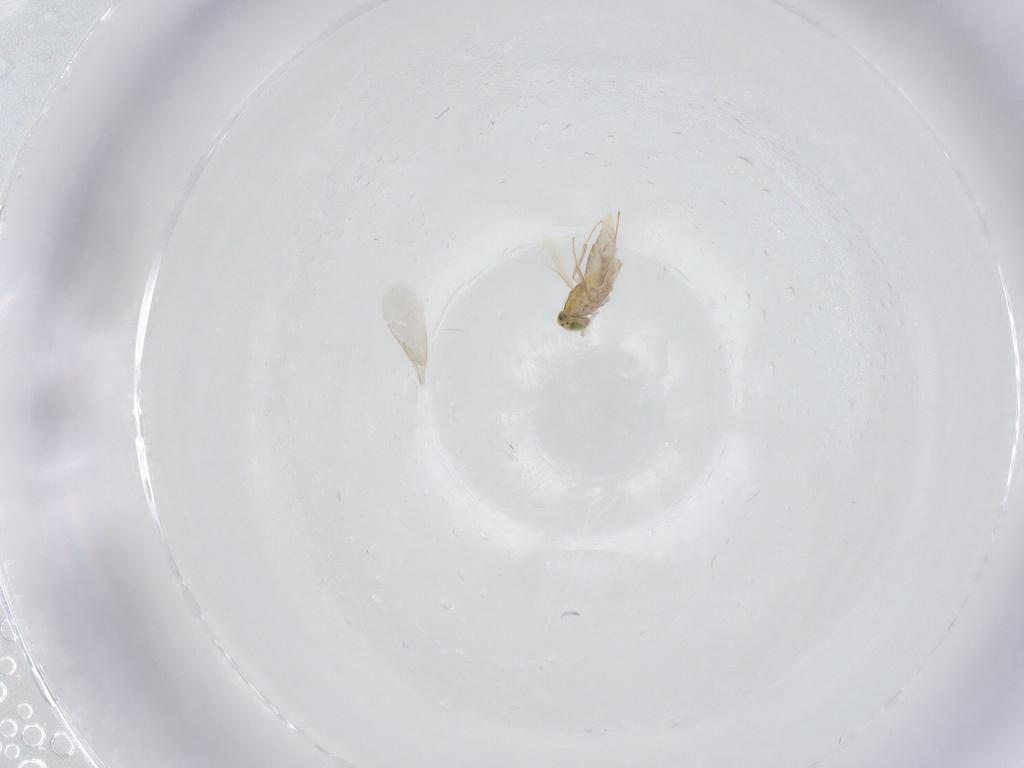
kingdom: Animalia
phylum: Arthropoda
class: Insecta
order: Hymenoptera
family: Aphelinidae
